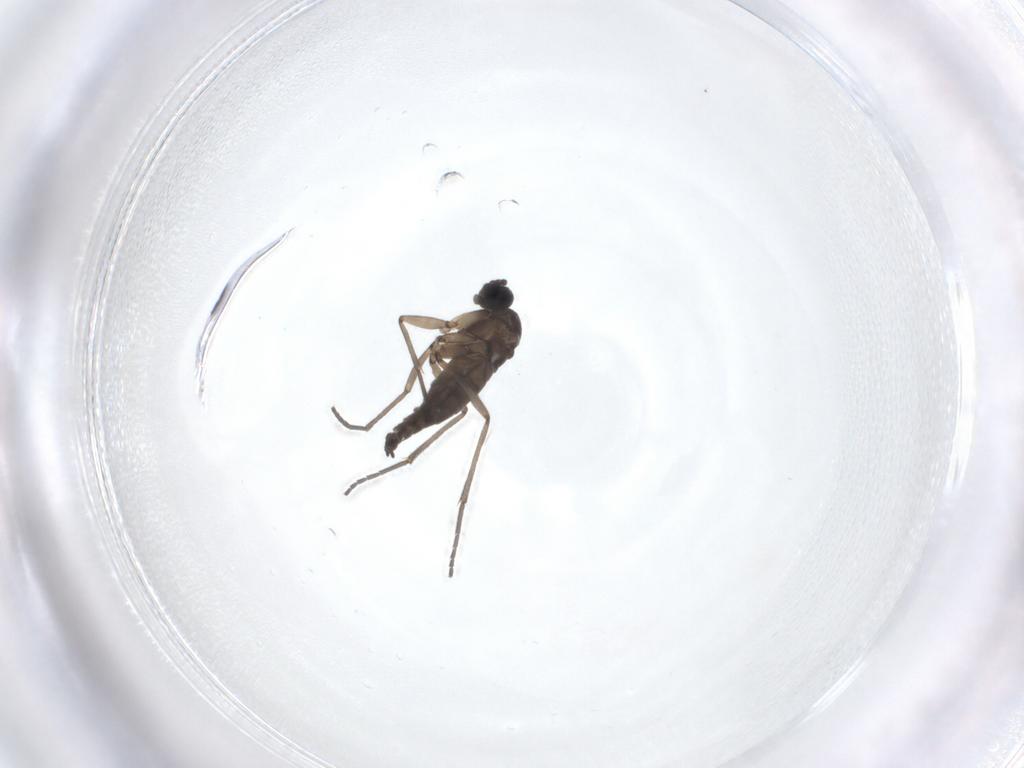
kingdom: Animalia
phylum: Arthropoda
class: Insecta
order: Diptera
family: Sciaridae
